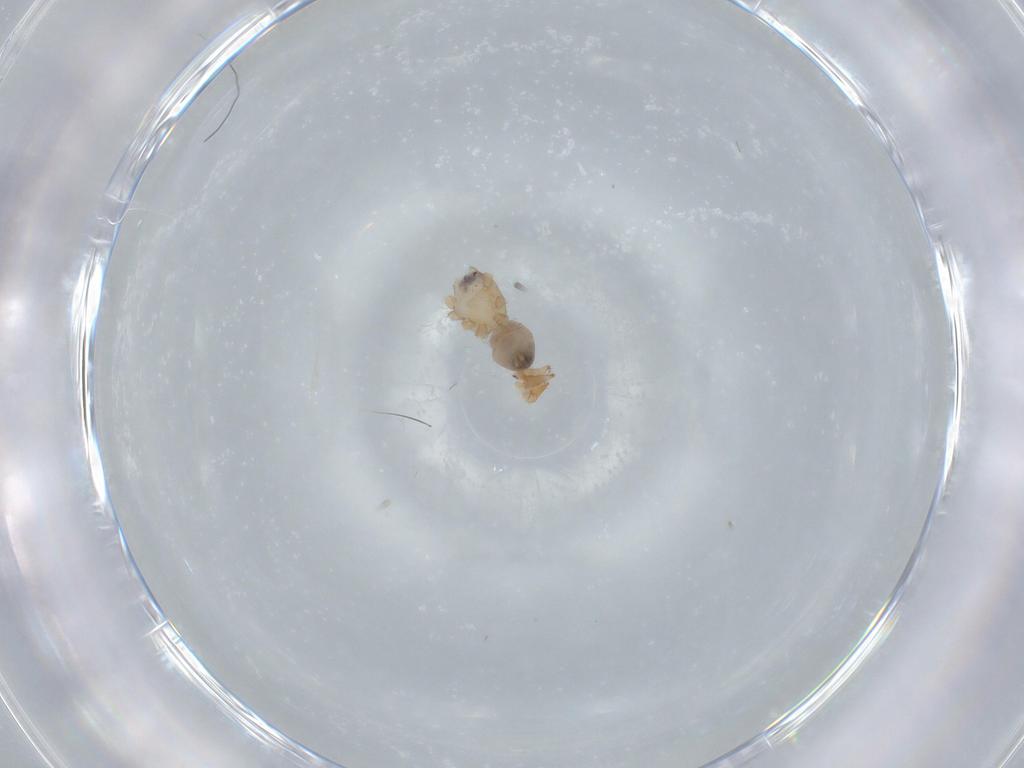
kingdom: Animalia
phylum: Arthropoda
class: Arachnida
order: Araneae
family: Oonopidae
